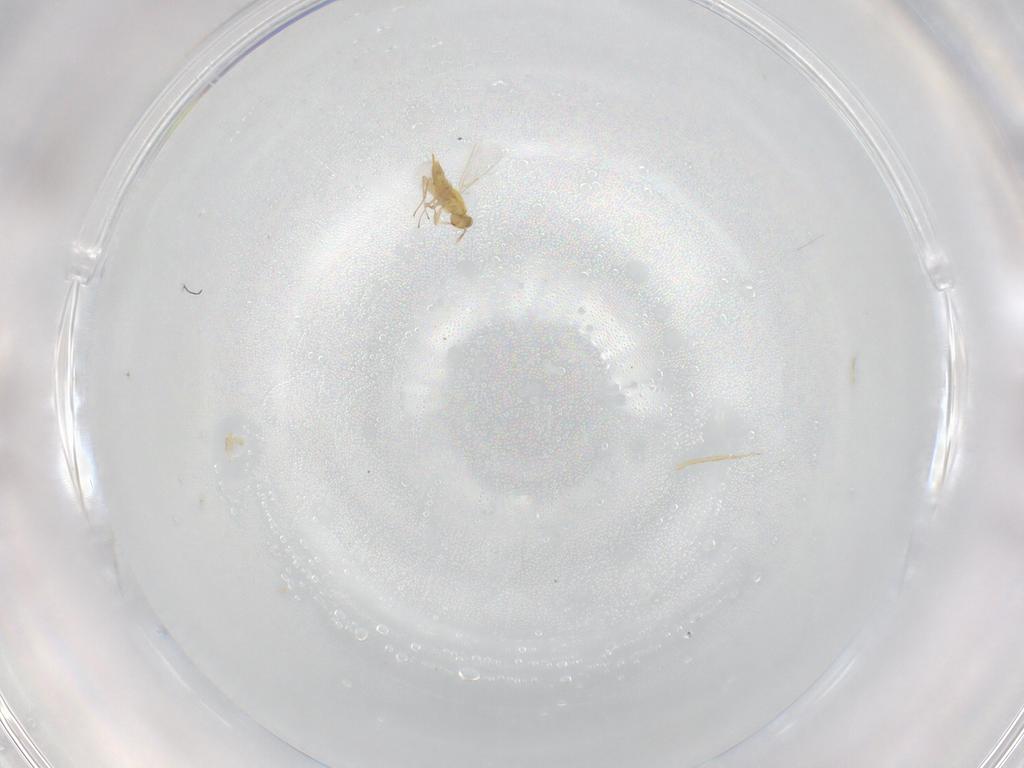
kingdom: Animalia
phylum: Arthropoda
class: Insecta
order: Hymenoptera
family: Aphelinidae
